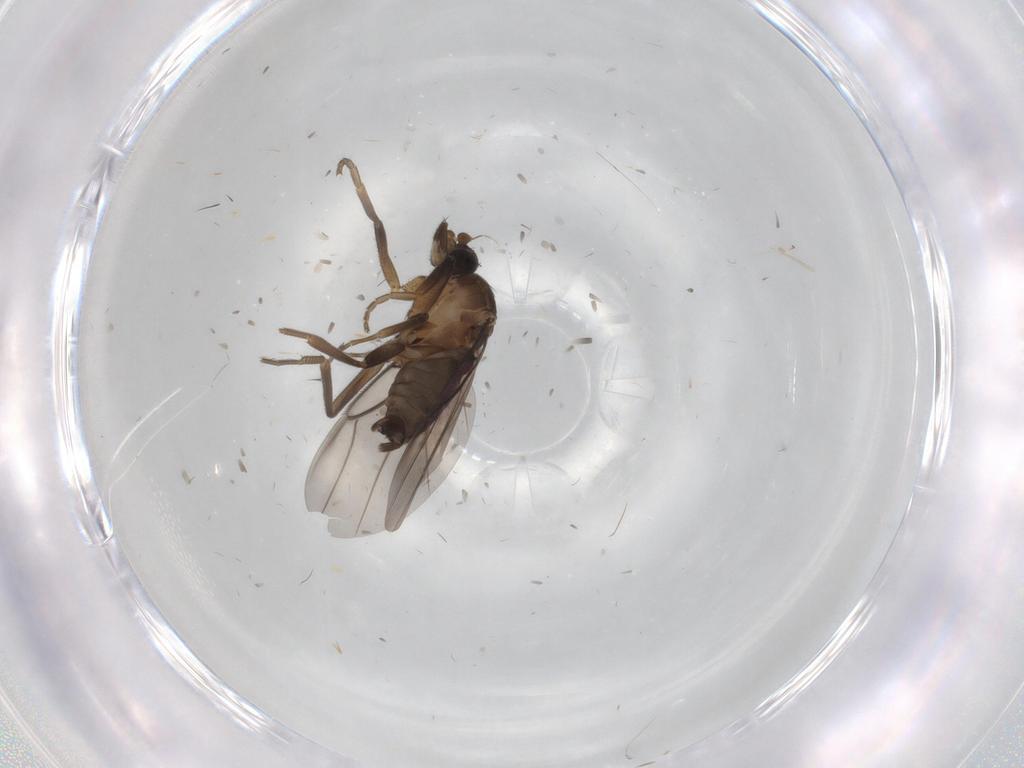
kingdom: Animalia
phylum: Arthropoda
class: Insecta
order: Diptera
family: Phoridae
